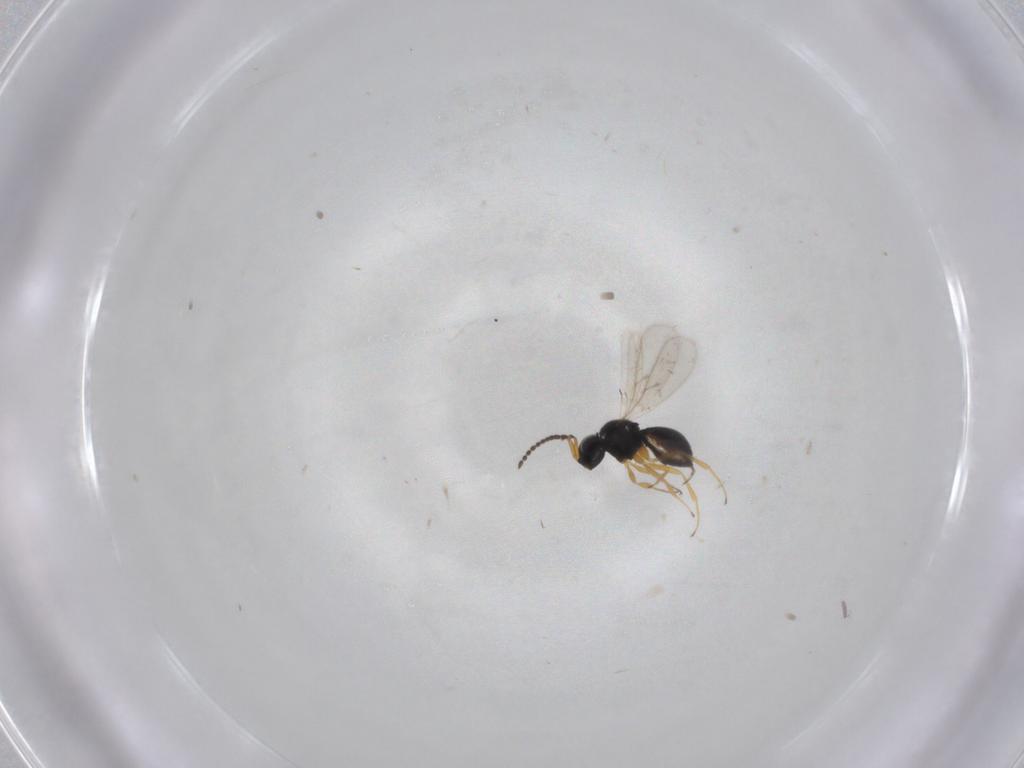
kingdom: Animalia
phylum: Arthropoda
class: Insecta
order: Hymenoptera
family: Scelionidae
